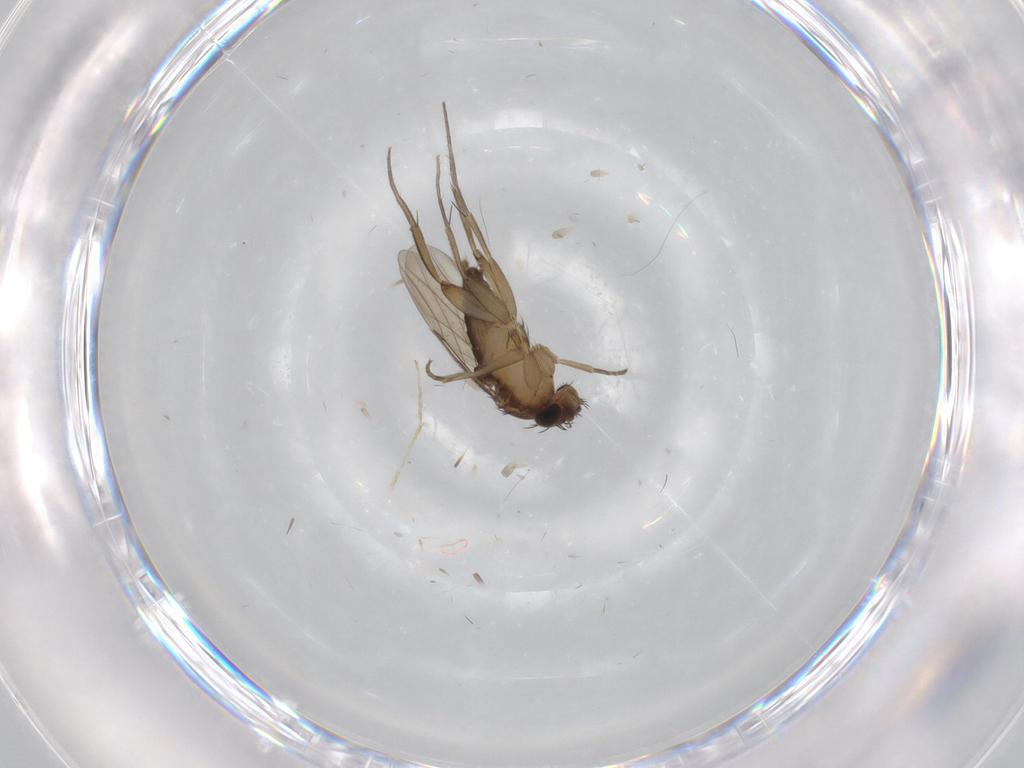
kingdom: Animalia
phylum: Arthropoda
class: Insecta
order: Diptera
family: Phoridae
